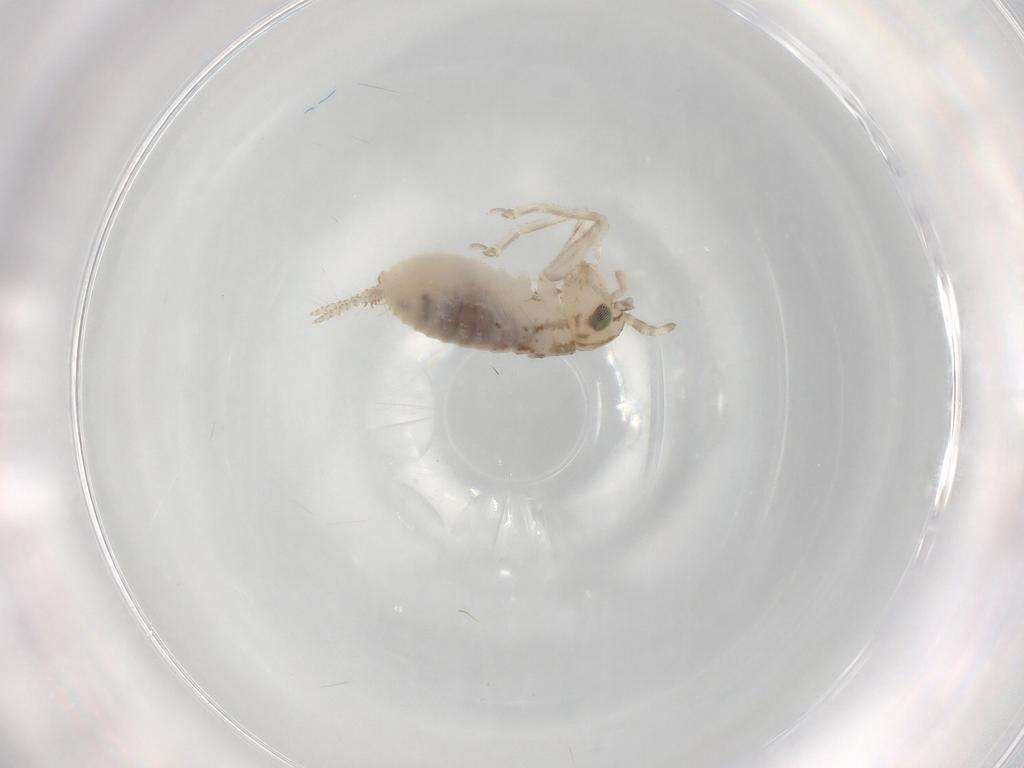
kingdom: Animalia
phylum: Arthropoda
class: Insecta
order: Orthoptera
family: Trigonidiidae
